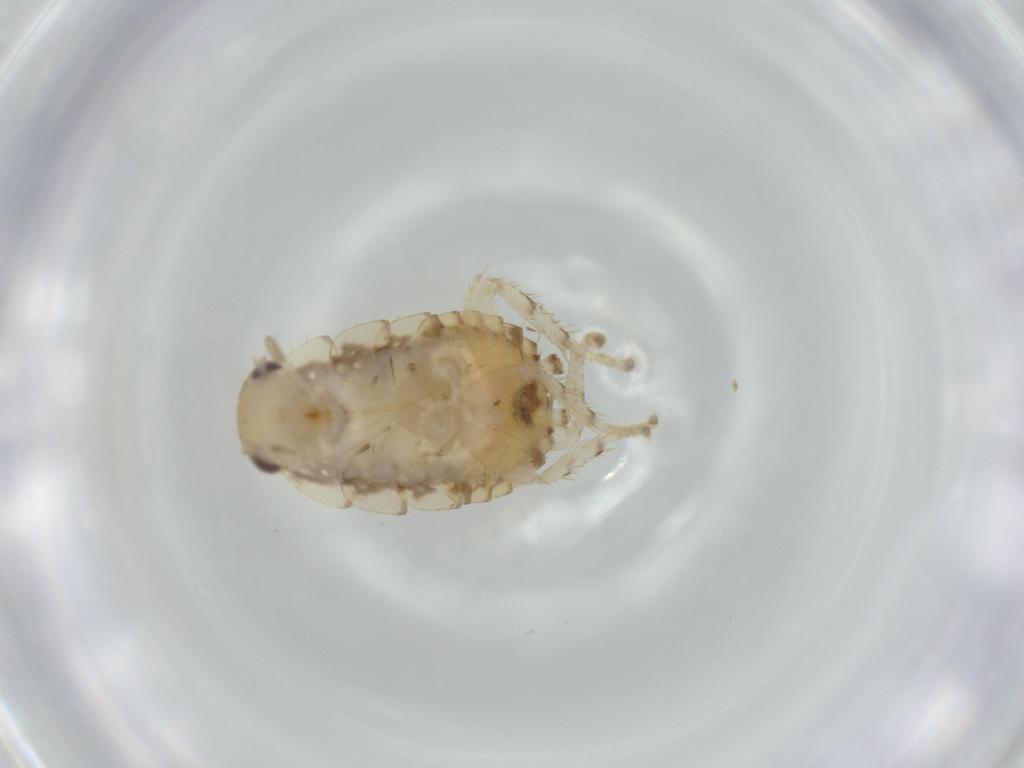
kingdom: Animalia
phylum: Arthropoda
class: Insecta
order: Blattodea
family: Ectobiidae
